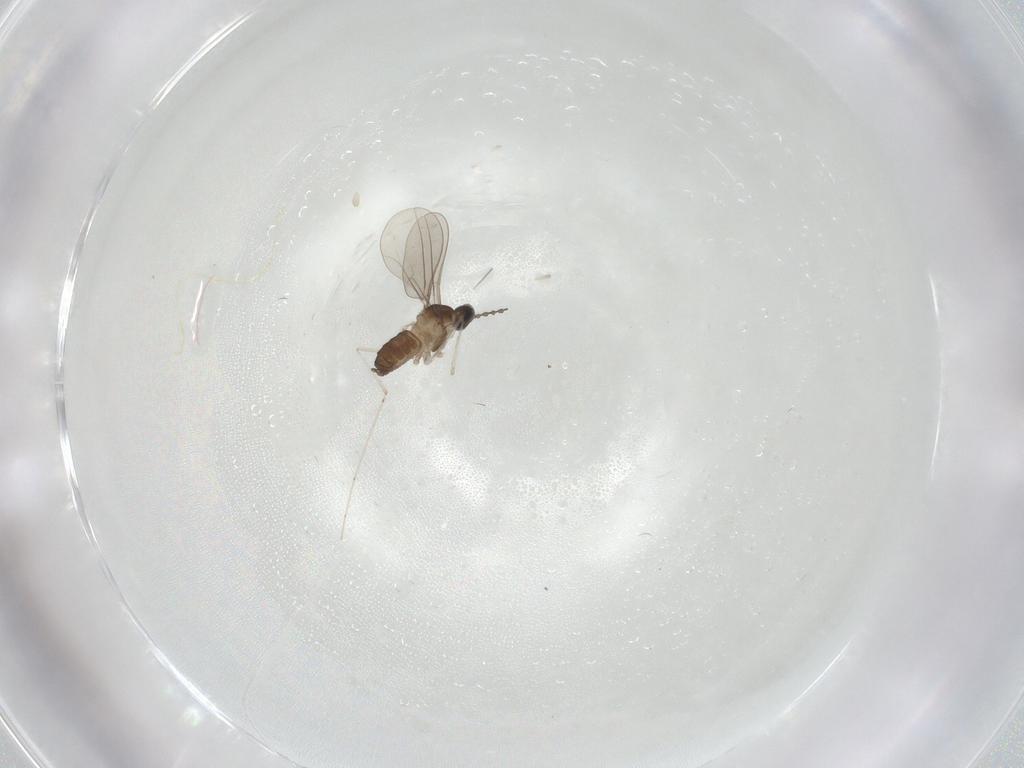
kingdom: Animalia
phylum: Arthropoda
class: Insecta
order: Diptera
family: Cecidomyiidae
